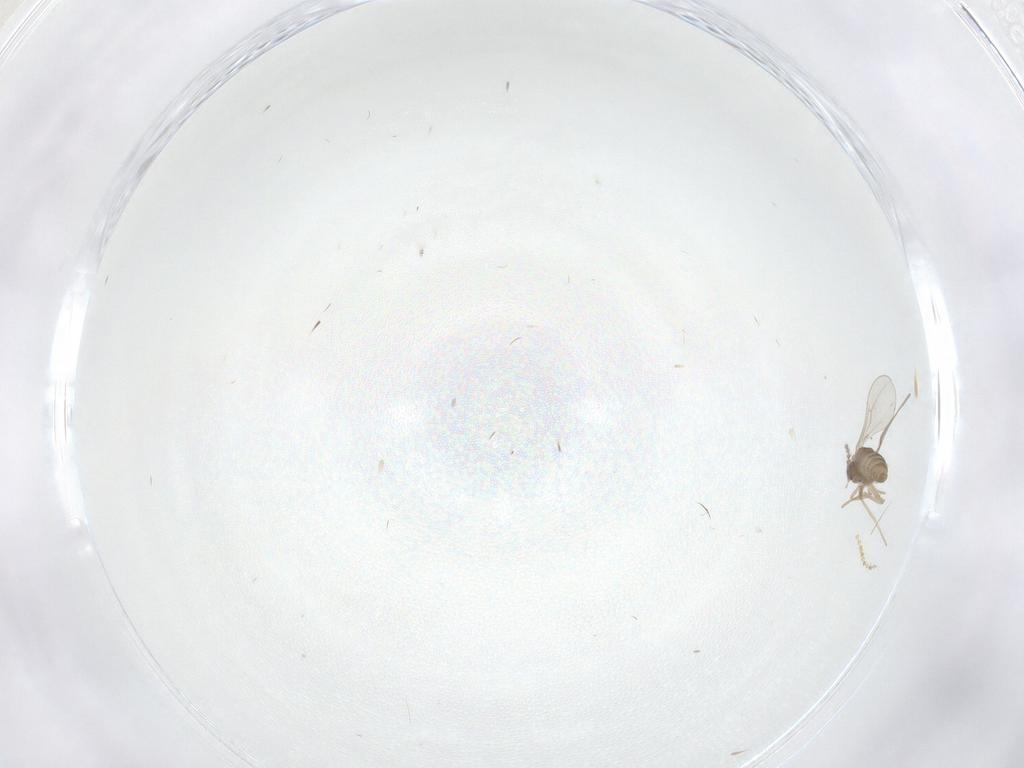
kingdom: Animalia
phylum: Arthropoda
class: Insecta
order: Diptera
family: Cecidomyiidae
